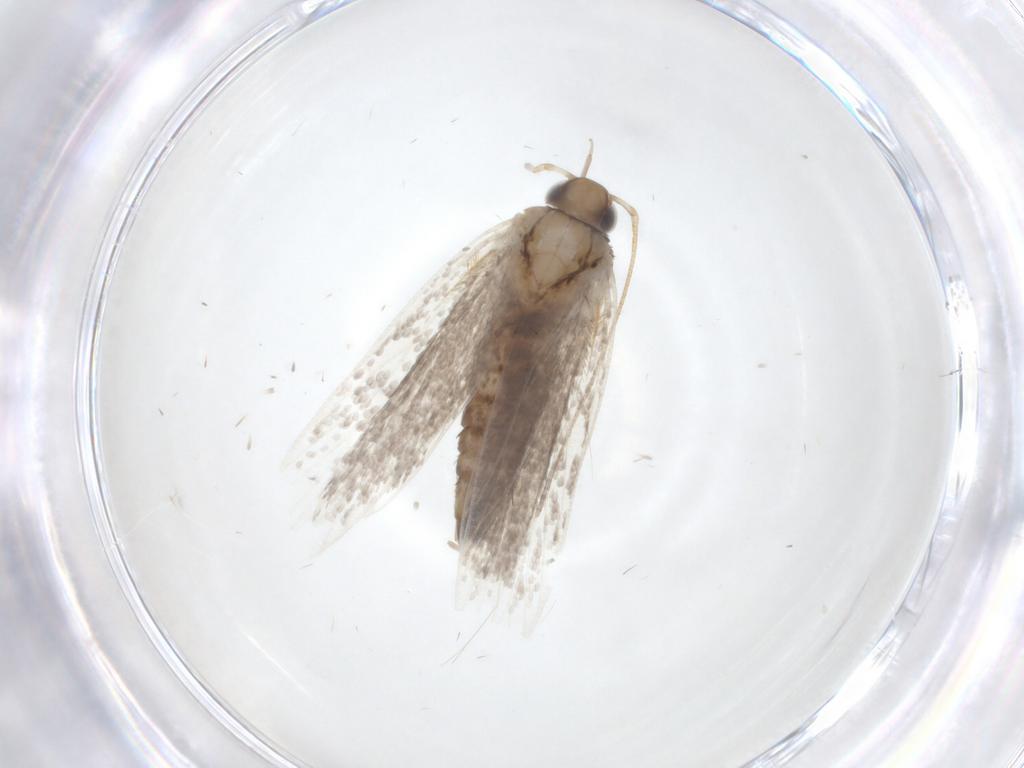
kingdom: Animalia
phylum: Arthropoda
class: Insecta
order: Lepidoptera
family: Gelechiidae
